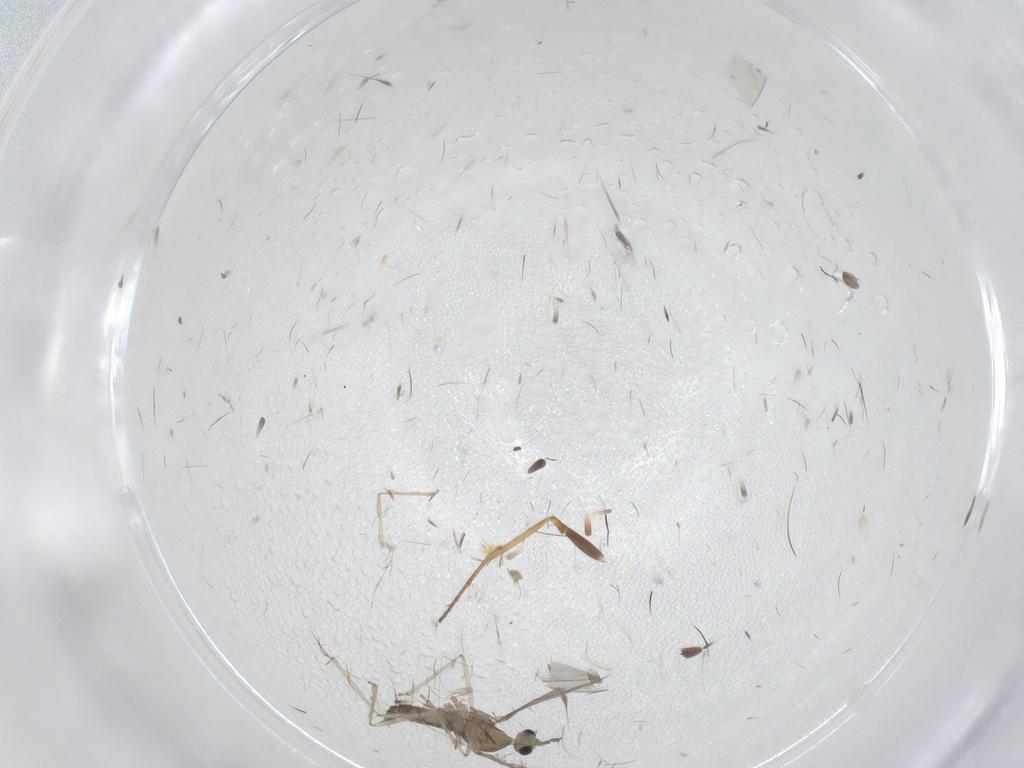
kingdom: Animalia
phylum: Arthropoda
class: Insecta
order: Diptera
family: Cecidomyiidae
